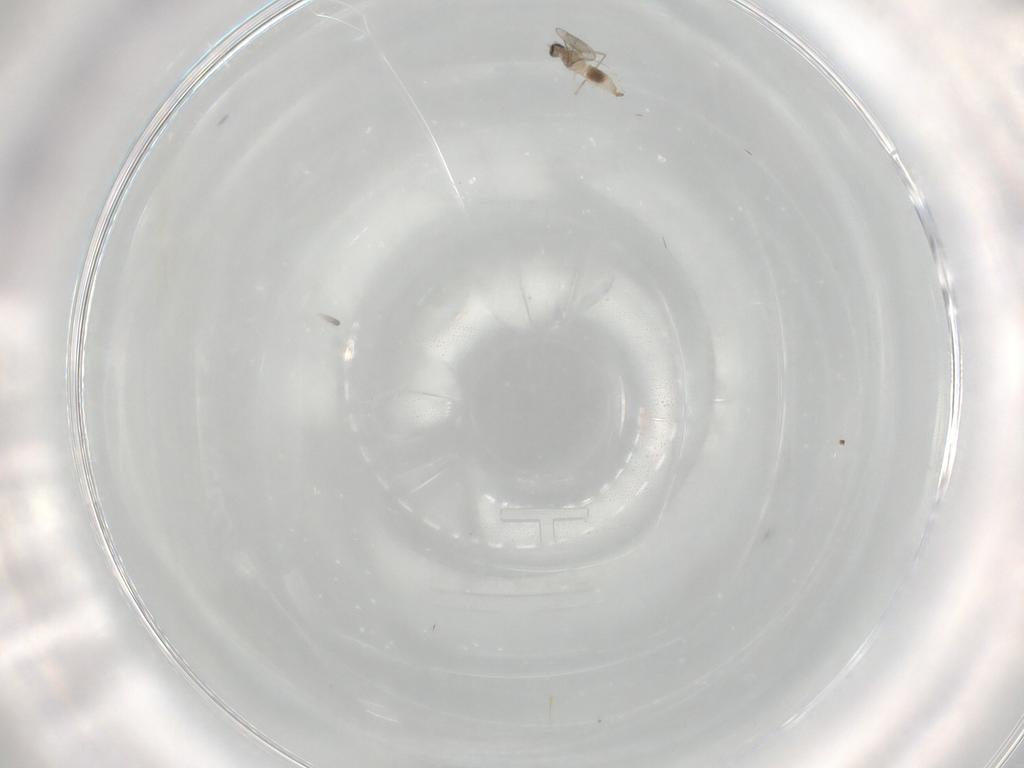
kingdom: Animalia
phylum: Arthropoda
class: Insecta
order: Diptera
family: Cecidomyiidae
